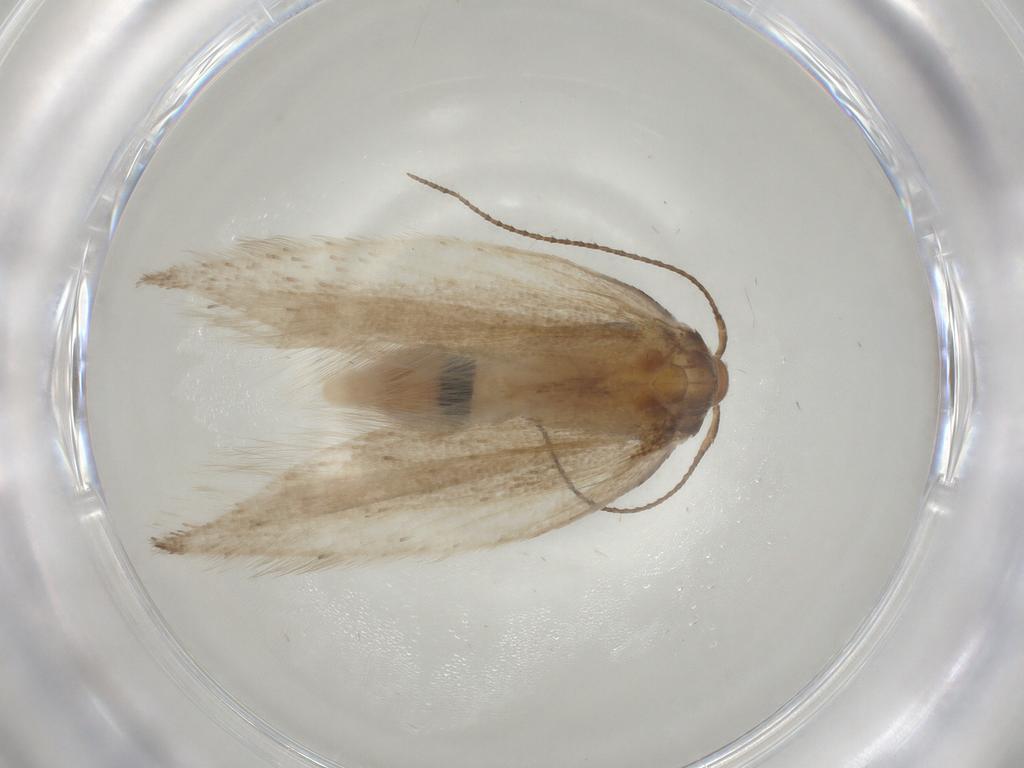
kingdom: Animalia
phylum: Arthropoda
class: Insecta
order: Lepidoptera
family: Gelechiidae
